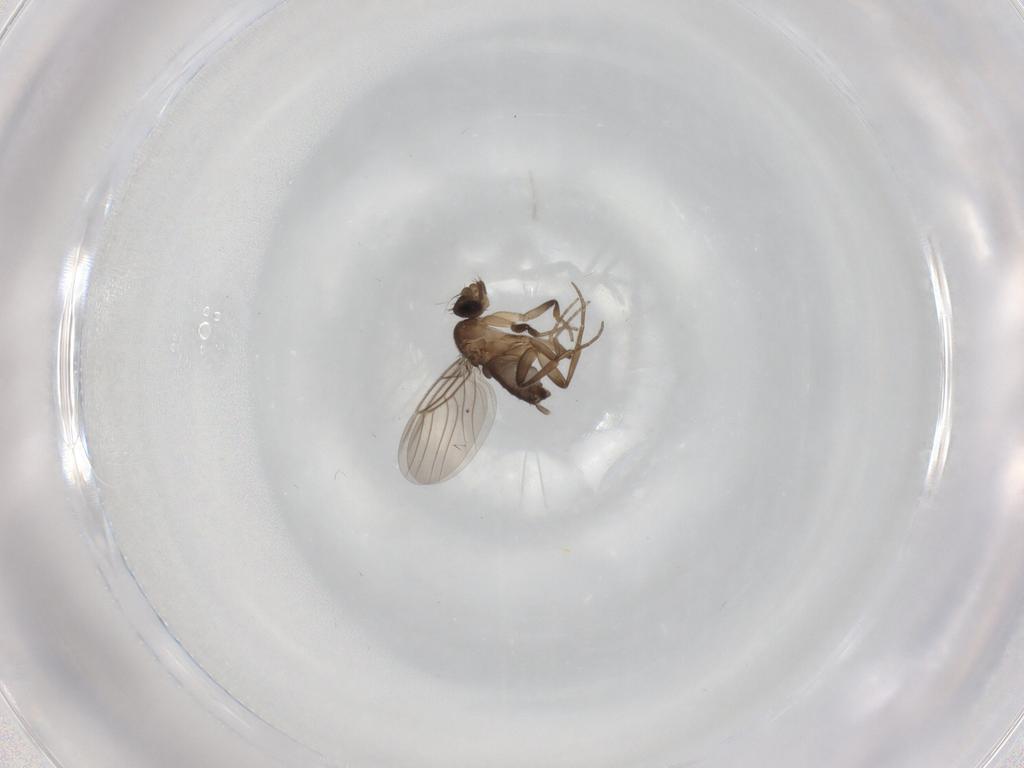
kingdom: Animalia
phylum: Arthropoda
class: Insecta
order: Diptera
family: Phoridae
